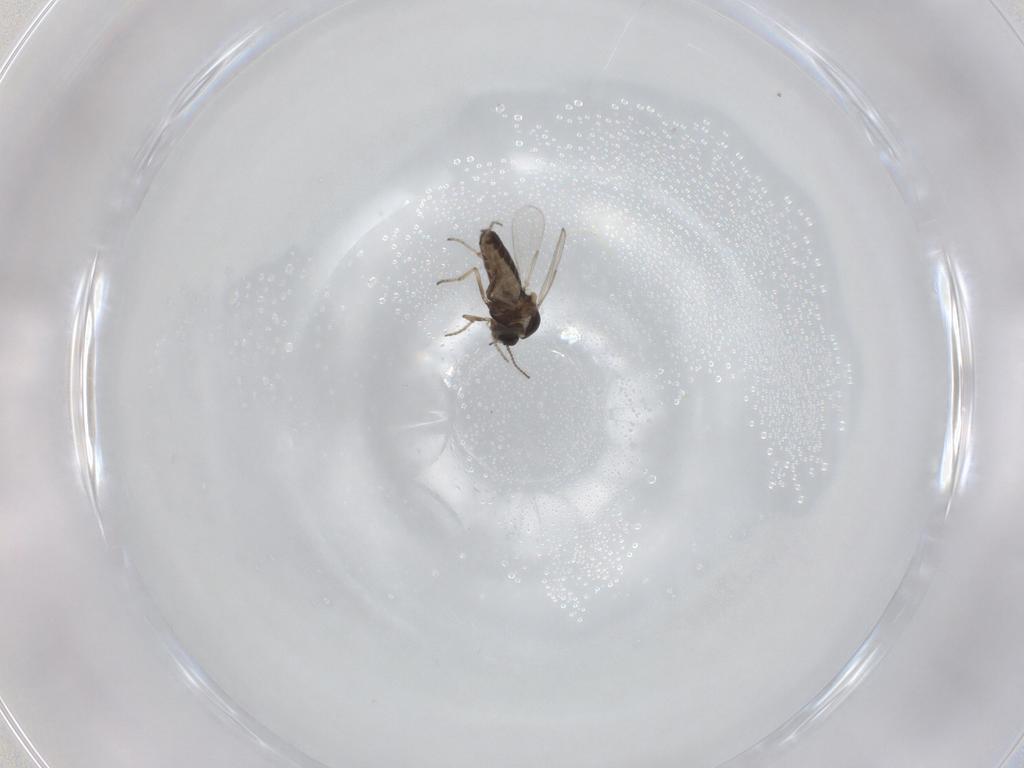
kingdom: Animalia
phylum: Arthropoda
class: Insecta
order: Diptera
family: Ceratopogonidae
